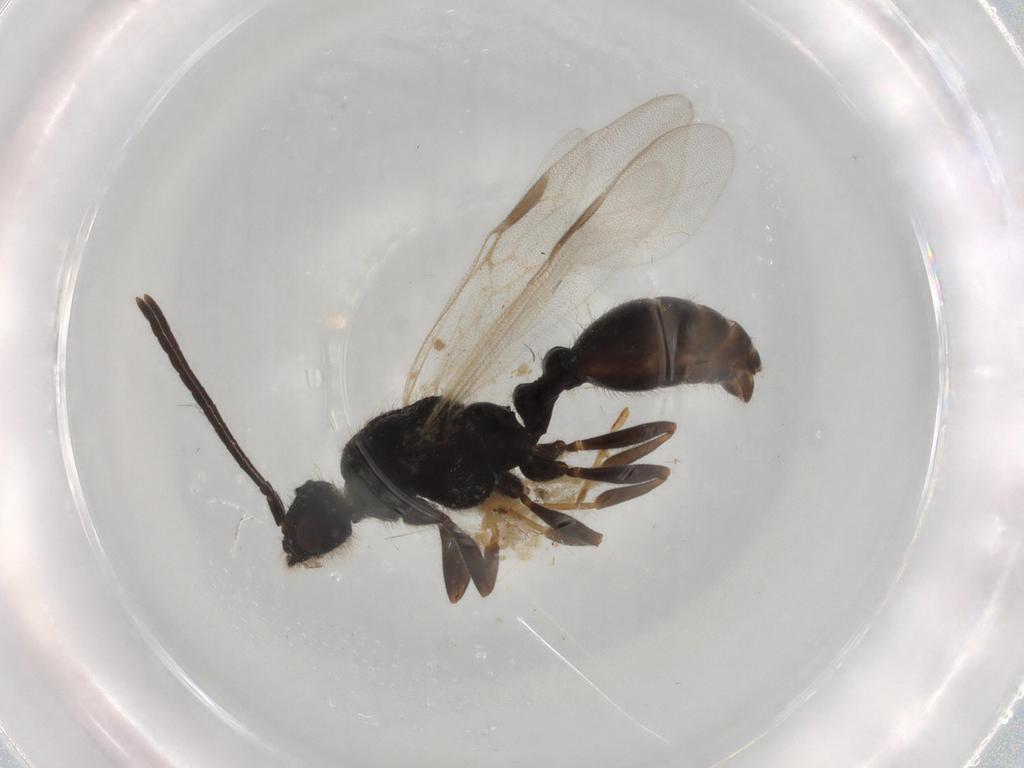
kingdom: Animalia
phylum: Arthropoda
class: Insecta
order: Hymenoptera
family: Formicidae
